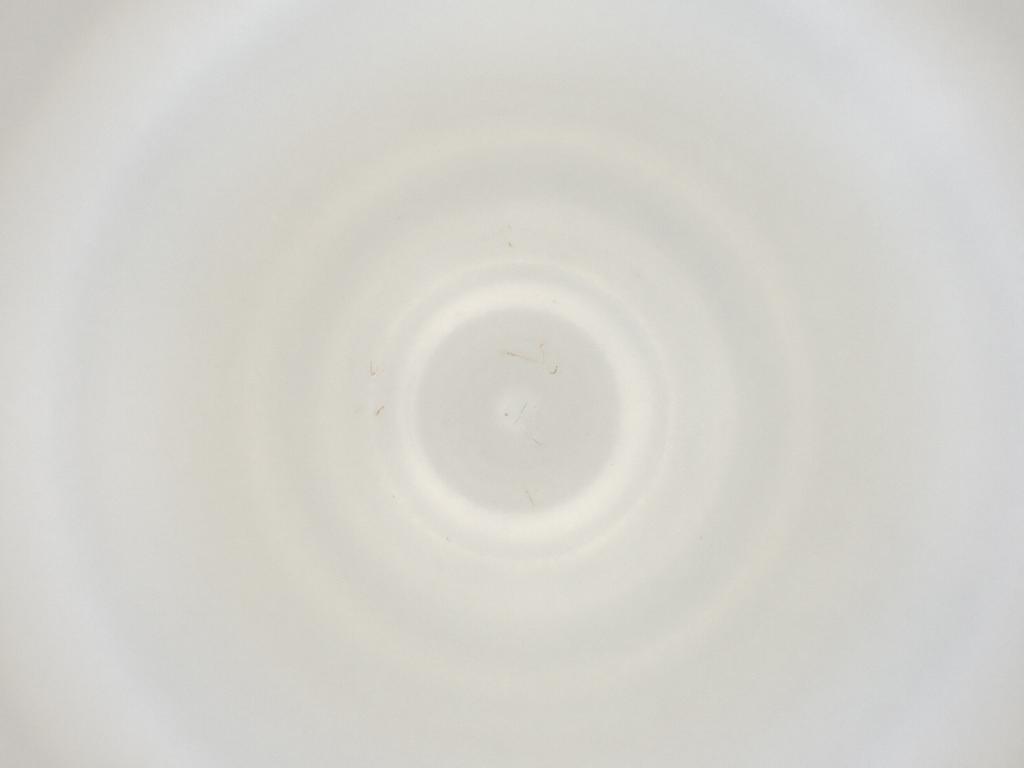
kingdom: Animalia
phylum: Arthropoda
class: Insecta
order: Diptera
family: Cecidomyiidae
